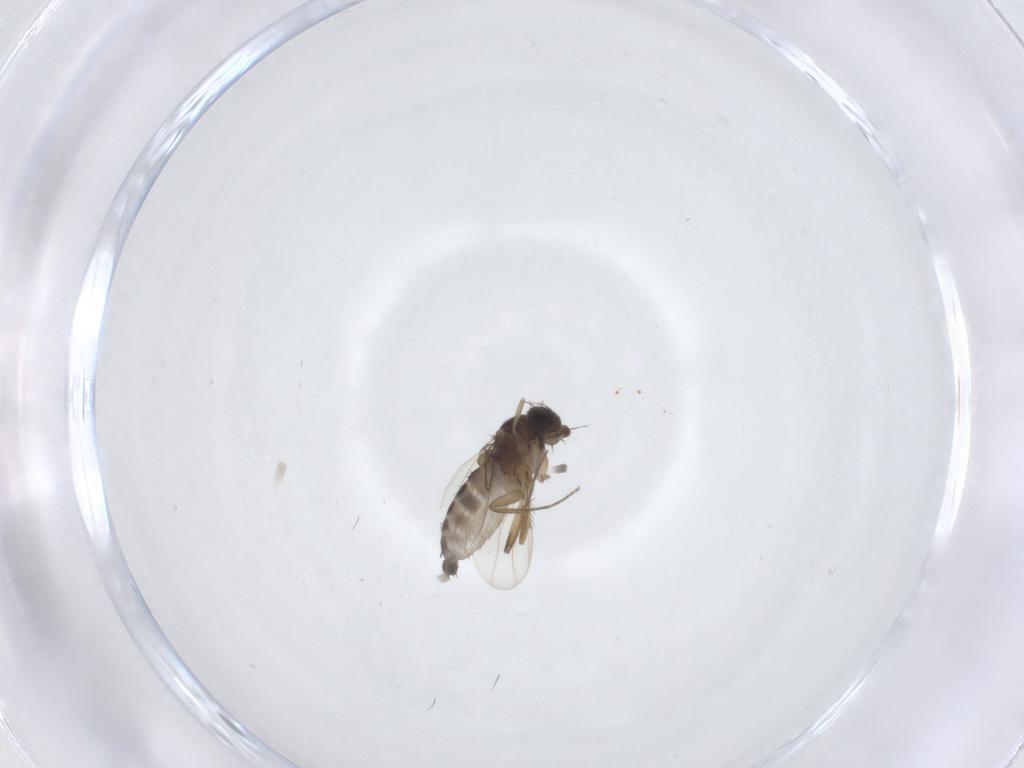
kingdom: Animalia
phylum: Arthropoda
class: Insecta
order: Diptera
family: Phoridae
